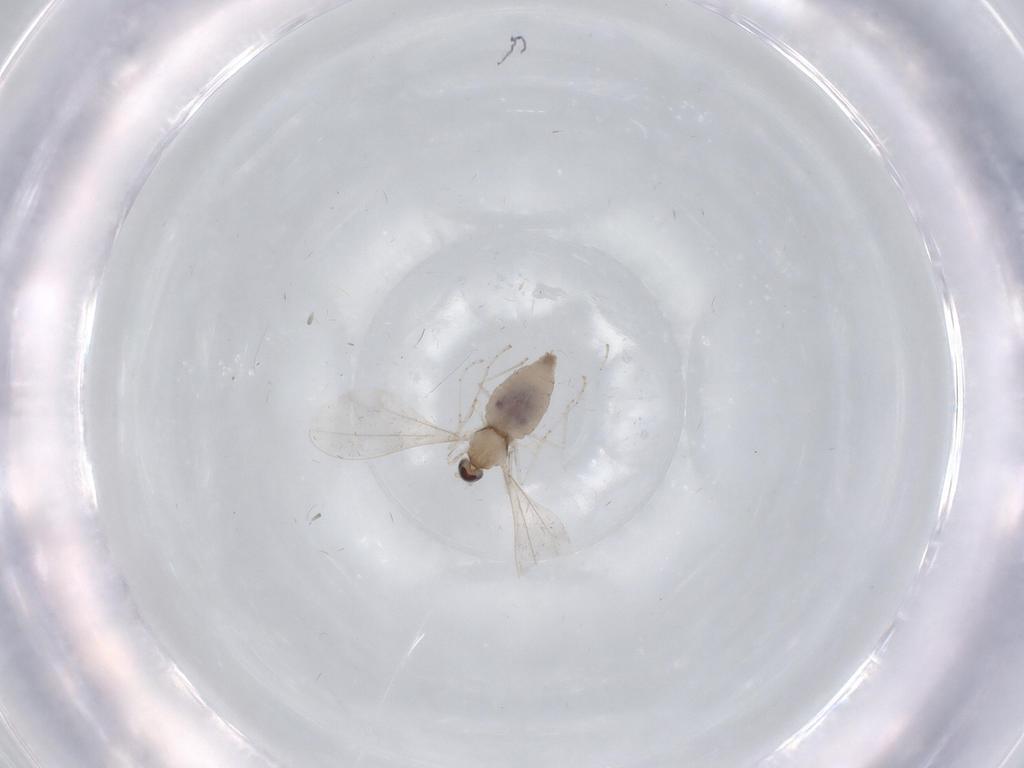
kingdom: Animalia
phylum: Arthropoda
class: Insecta
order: Diptera
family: Cecidomyiidae
